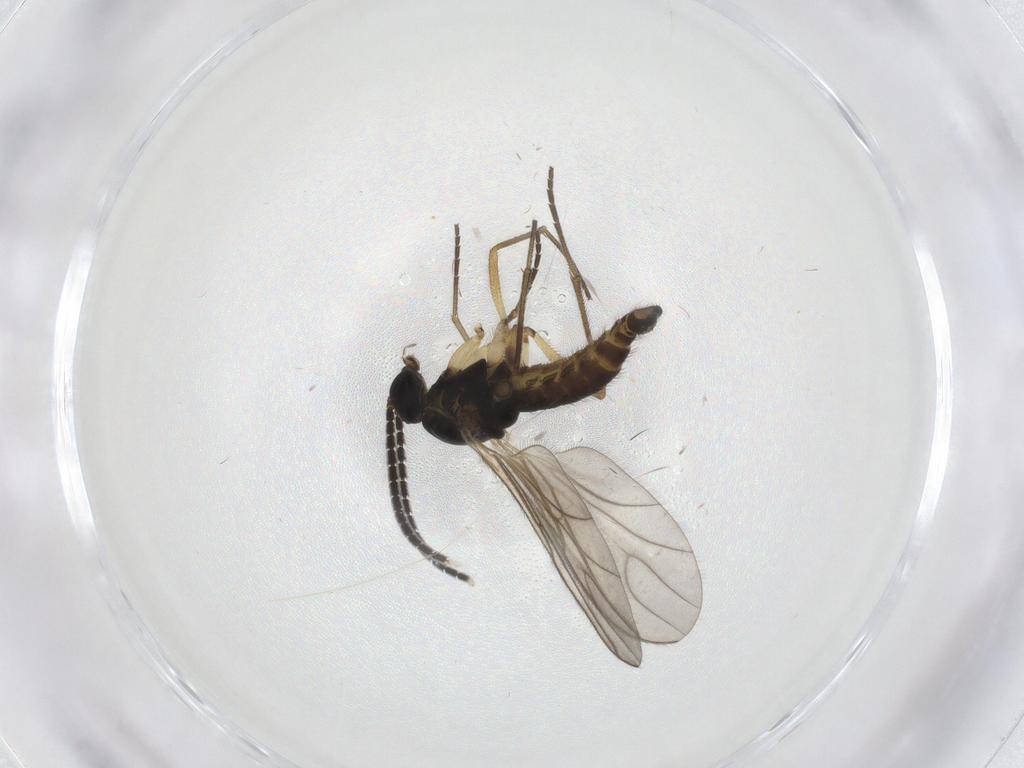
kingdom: Animalia
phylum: Arthropoda
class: Insecta
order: Diptera
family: Sciaridae
